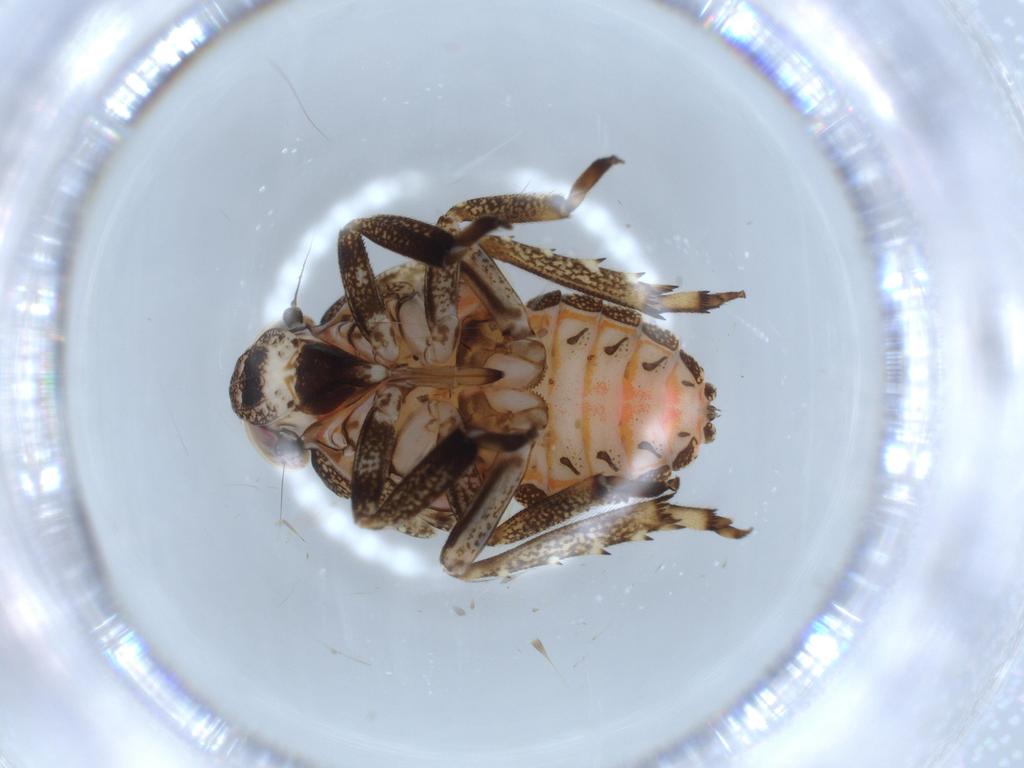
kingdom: Animalia
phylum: Arthropoda
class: Insecta
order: Hemiptera
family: Issidae
